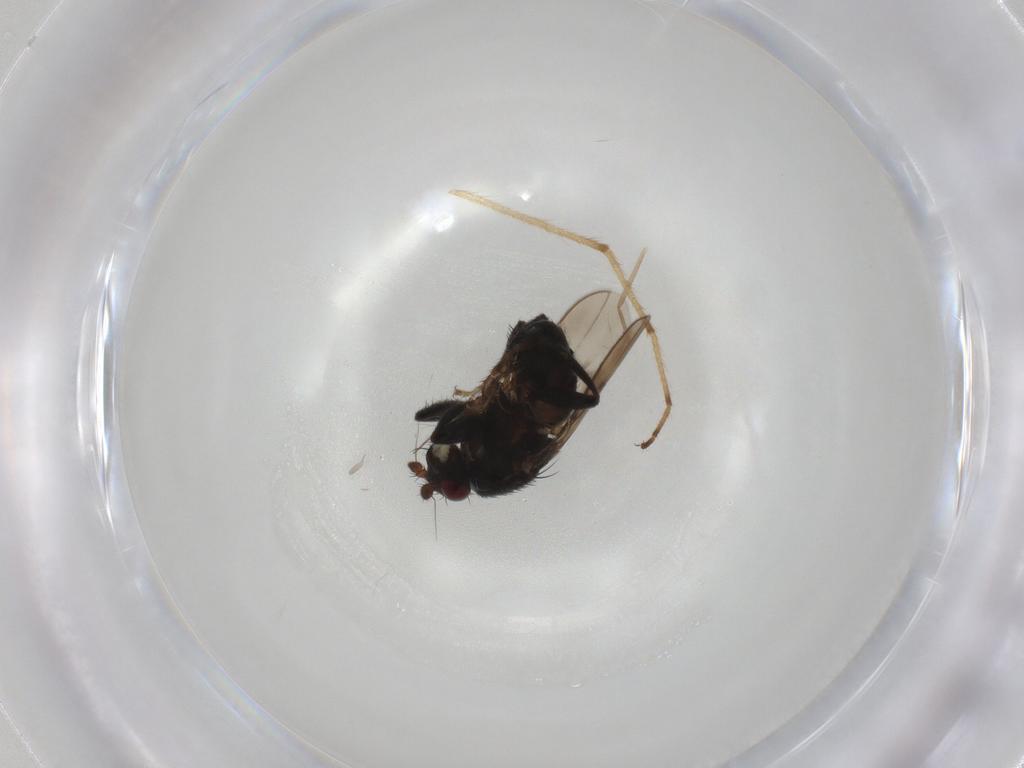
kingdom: Animalia
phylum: Arthropoda
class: Insecta
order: Diptera
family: Sphaeroceridae
